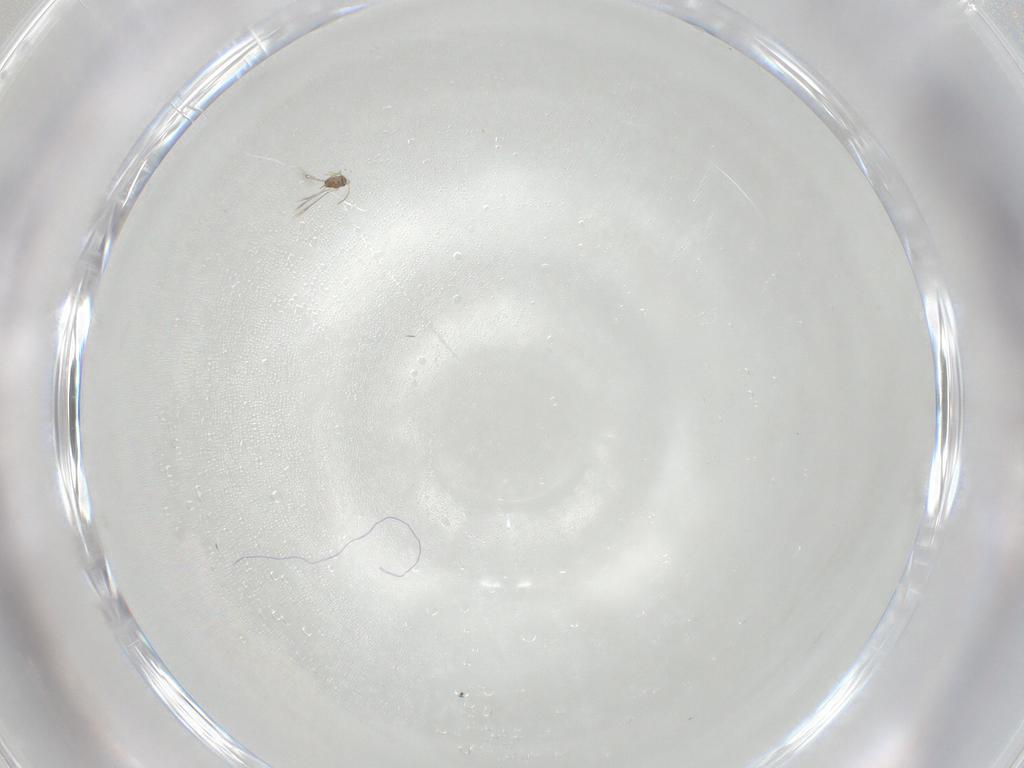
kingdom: Animalia
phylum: Arthropoda
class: Insecta
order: Hymenoptera
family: Mymaridae
